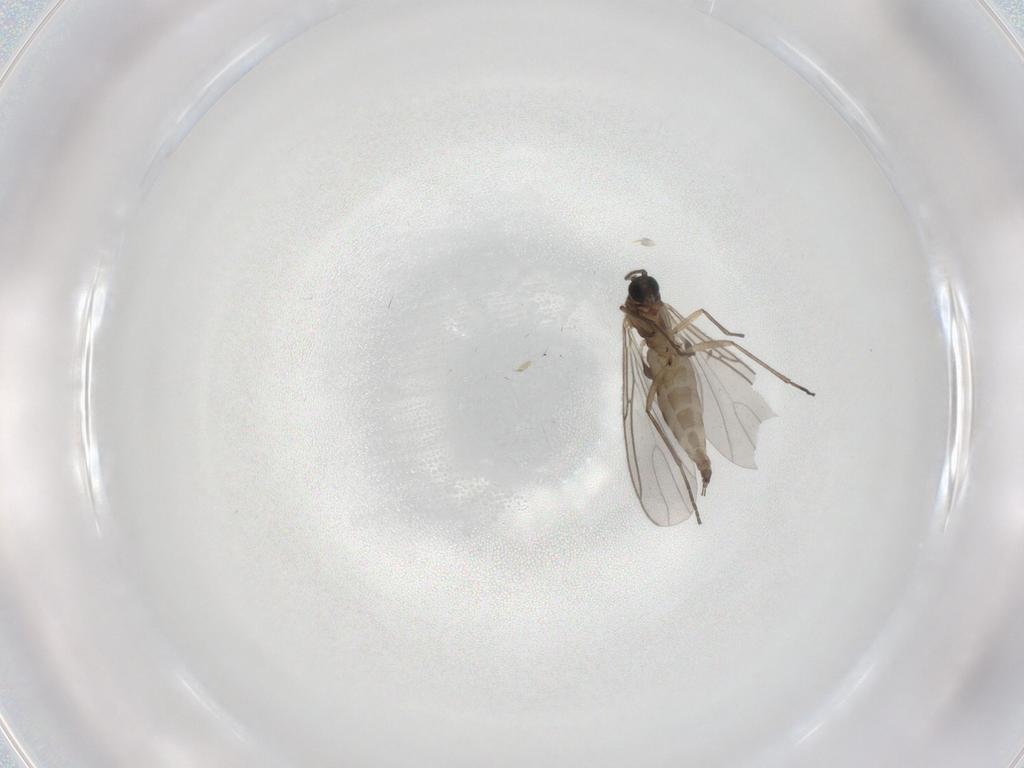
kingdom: Animalia
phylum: Arthropoda
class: Insecta
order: Diptera
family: Sciaridae
